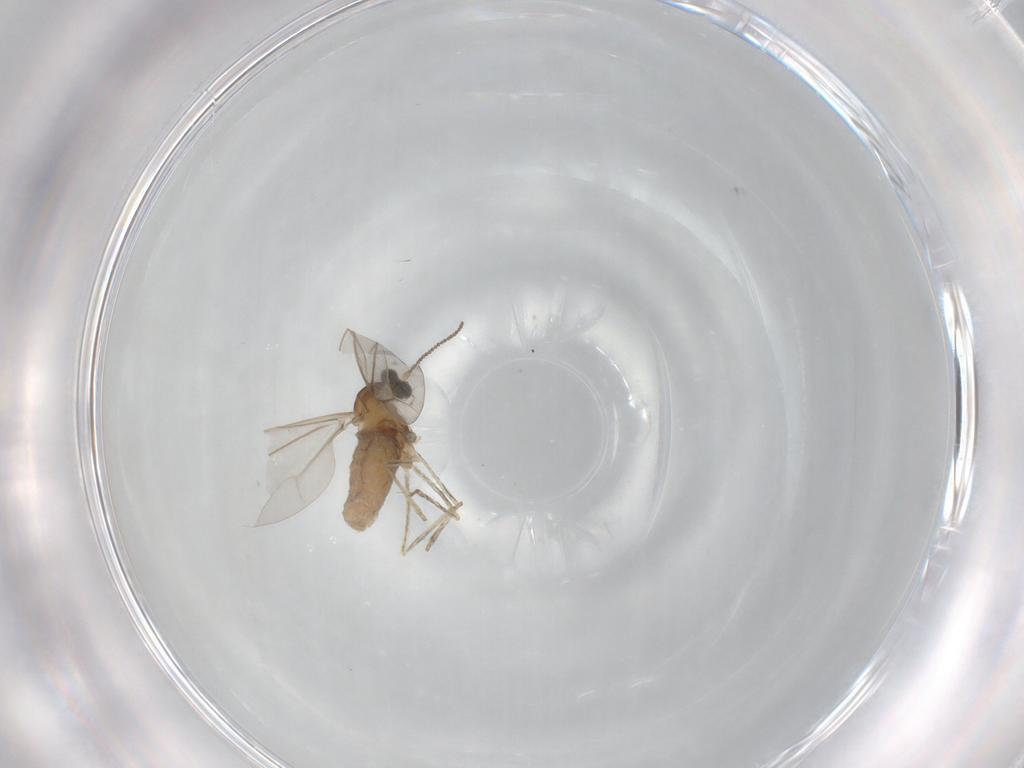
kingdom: Animalia
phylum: Arthropoda
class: Insecta
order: Diptera
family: Cecidomyiidae
